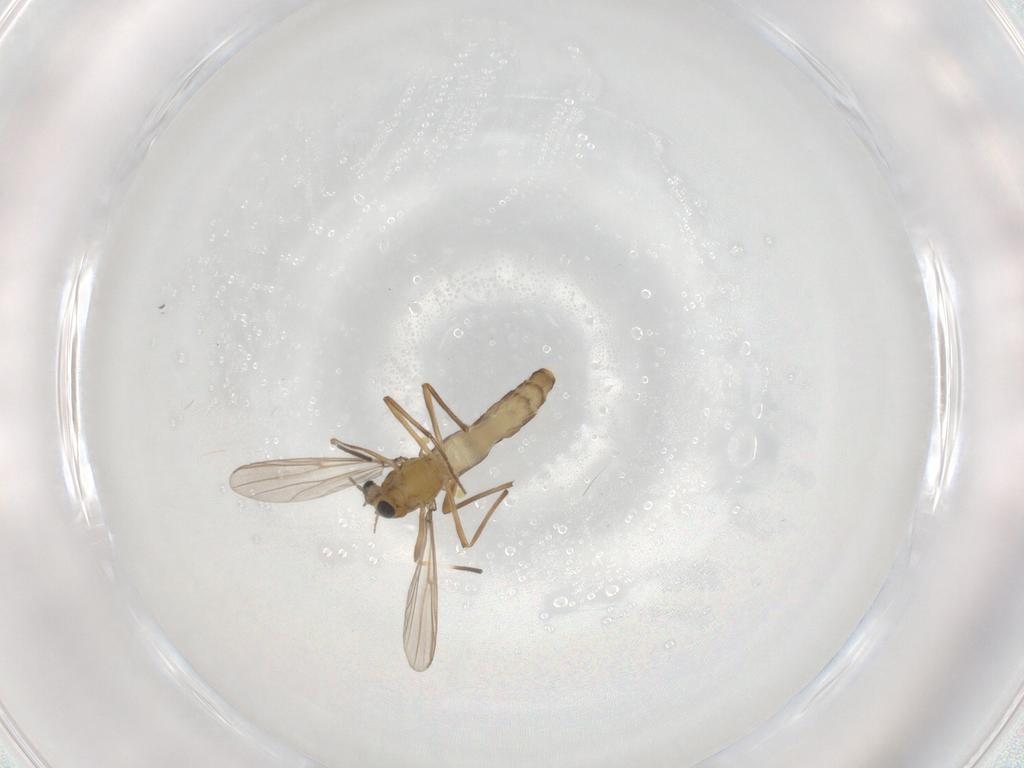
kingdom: Animalia
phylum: Arthropoda
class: Insecta
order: Diptera
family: Chironomidae
